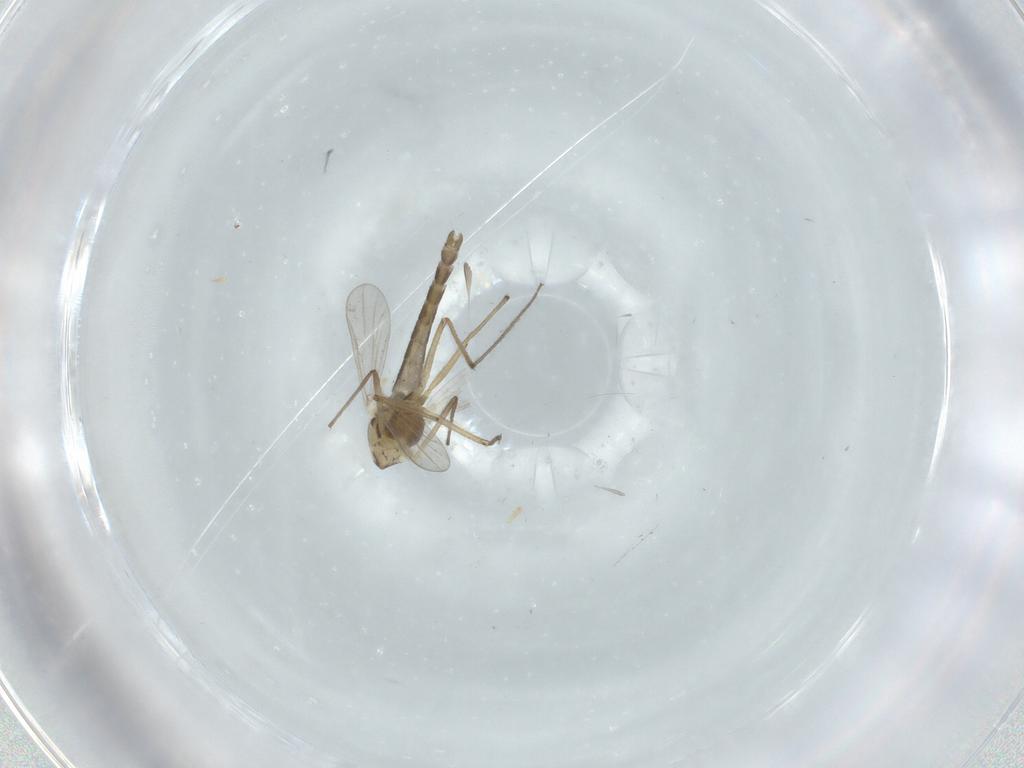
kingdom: Animalia
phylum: Arthropoda
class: Insecta
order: Diptera
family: Chironomidae
